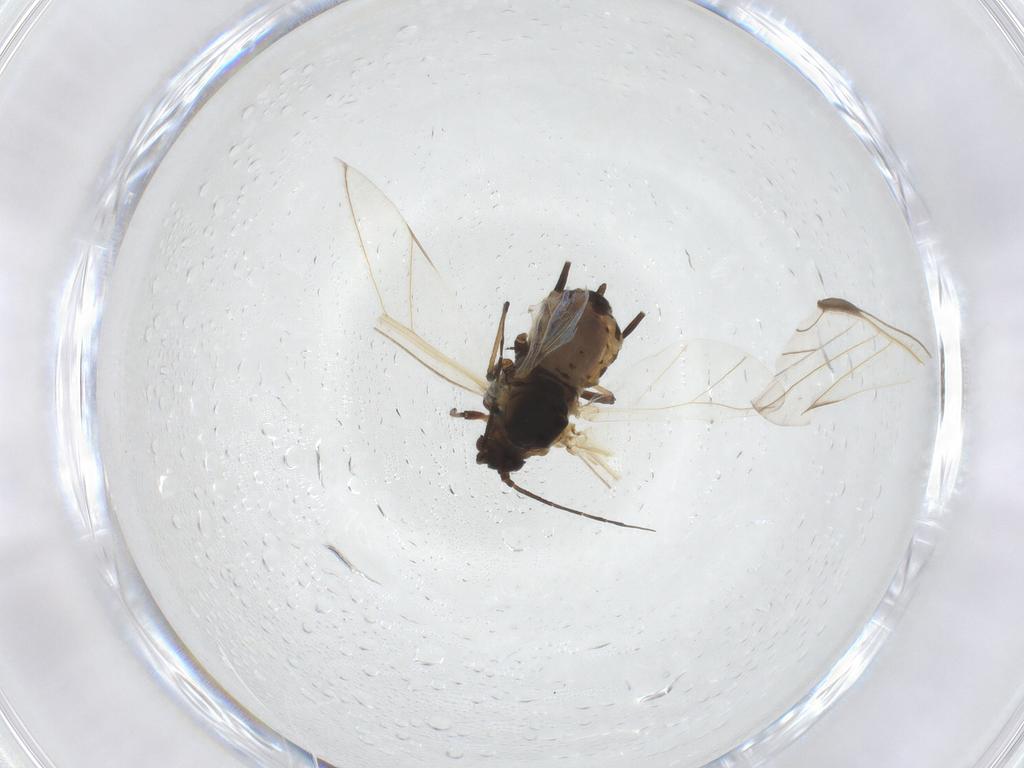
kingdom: Animalia
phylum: Arthropoda
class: Insecta
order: Hemiptera
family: Aphididae
